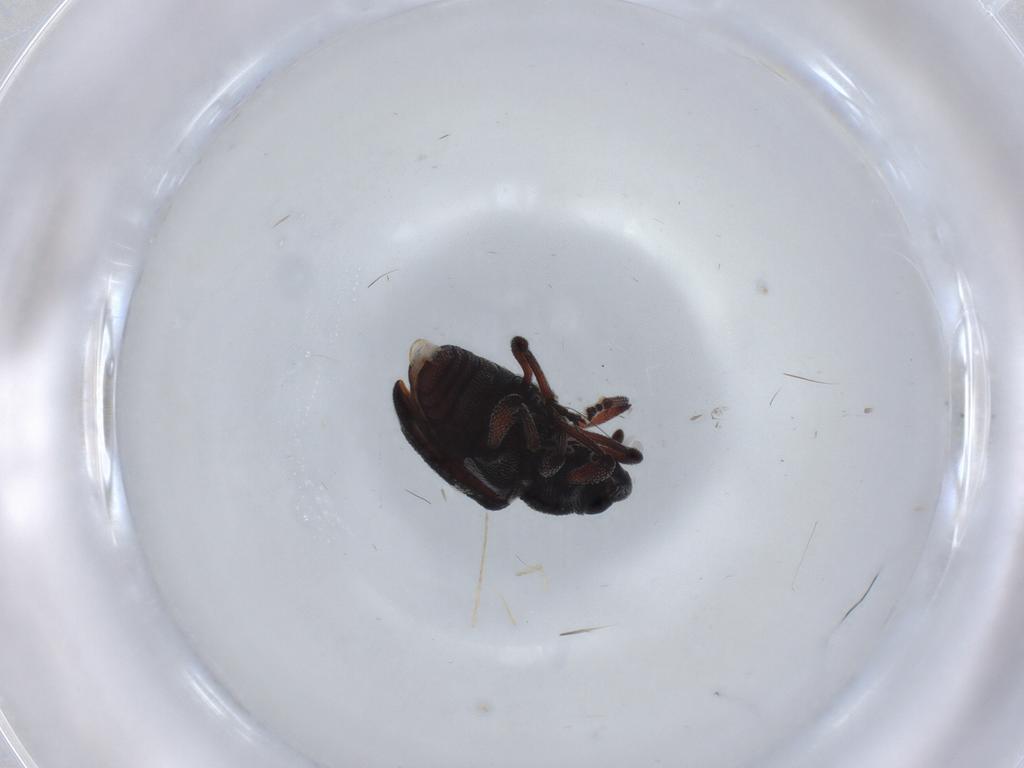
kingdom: Animalia
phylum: Arthropoda
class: Insecta
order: Coleoptera
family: Curculionidae
